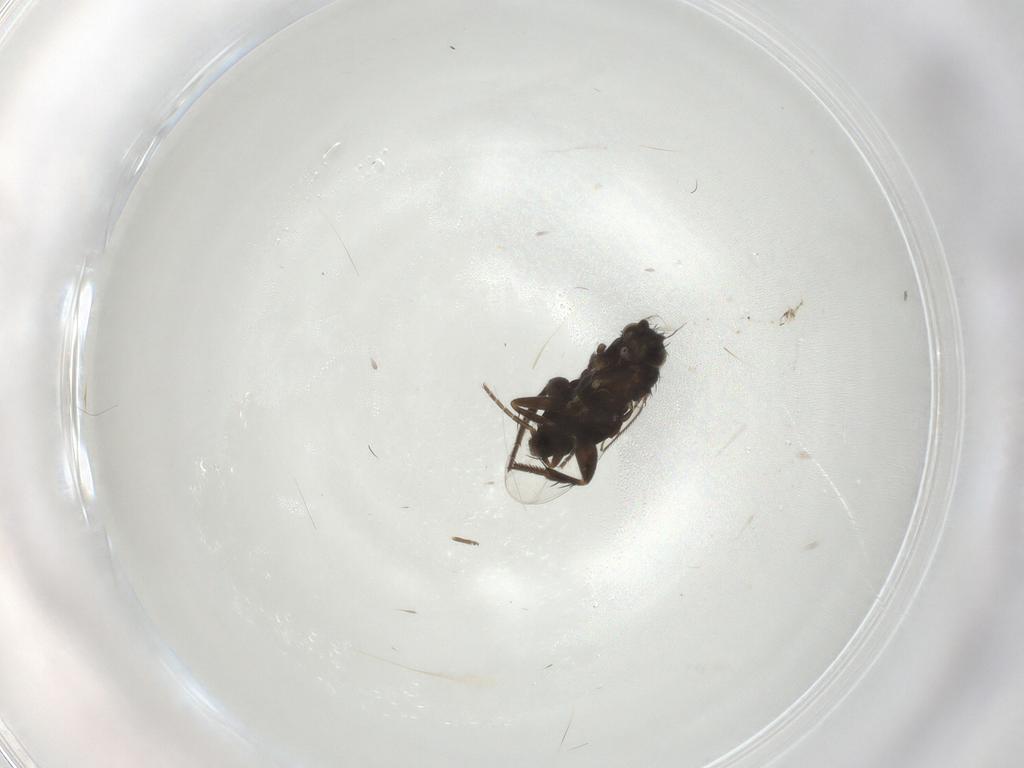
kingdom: Animalia
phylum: Arthropoda
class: Insecta
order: Diptera
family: Phoridae
